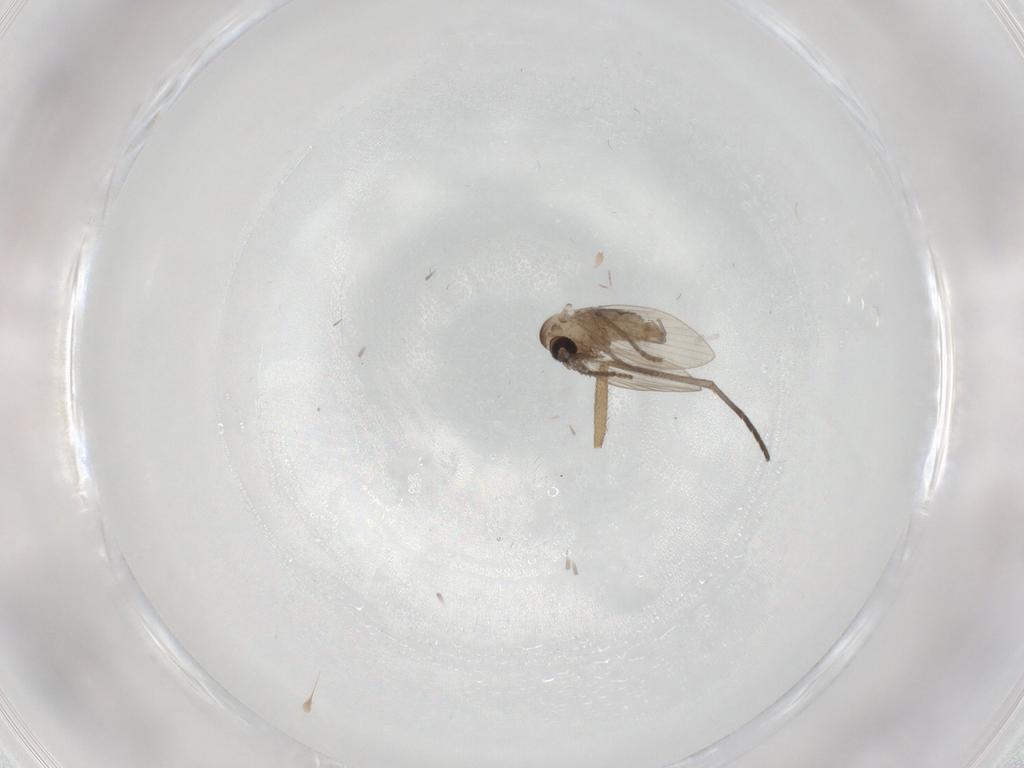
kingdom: Animalia
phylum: Arthropoda
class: Insecta
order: Diptera
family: Psychodidae
